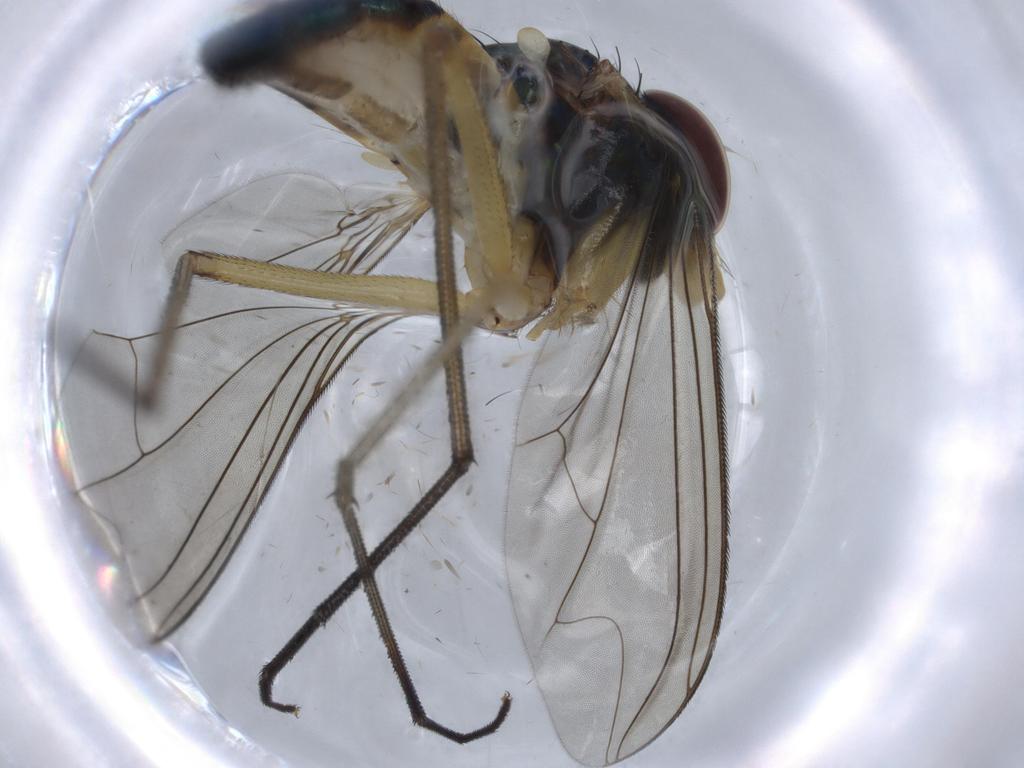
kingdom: Animalia
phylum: Arthropoda
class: Insecta
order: Diptera
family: Dolichopodidae
